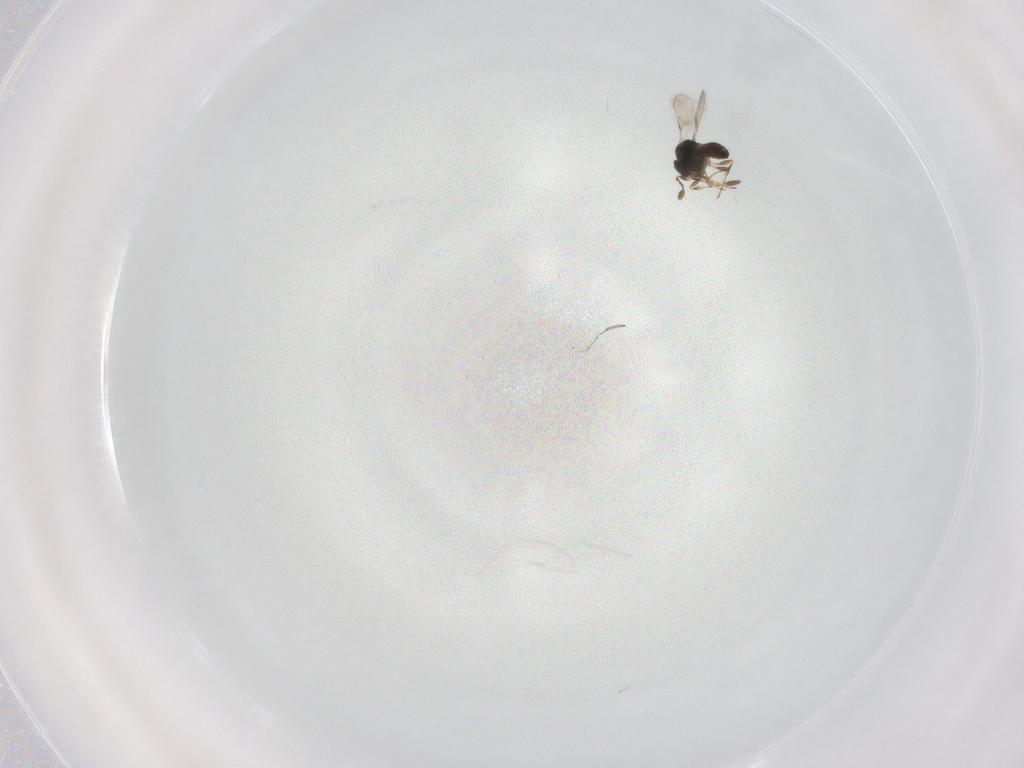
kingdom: Animalia
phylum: Arthropoda
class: Insecta
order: Hymenoptera
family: Scelionidae
